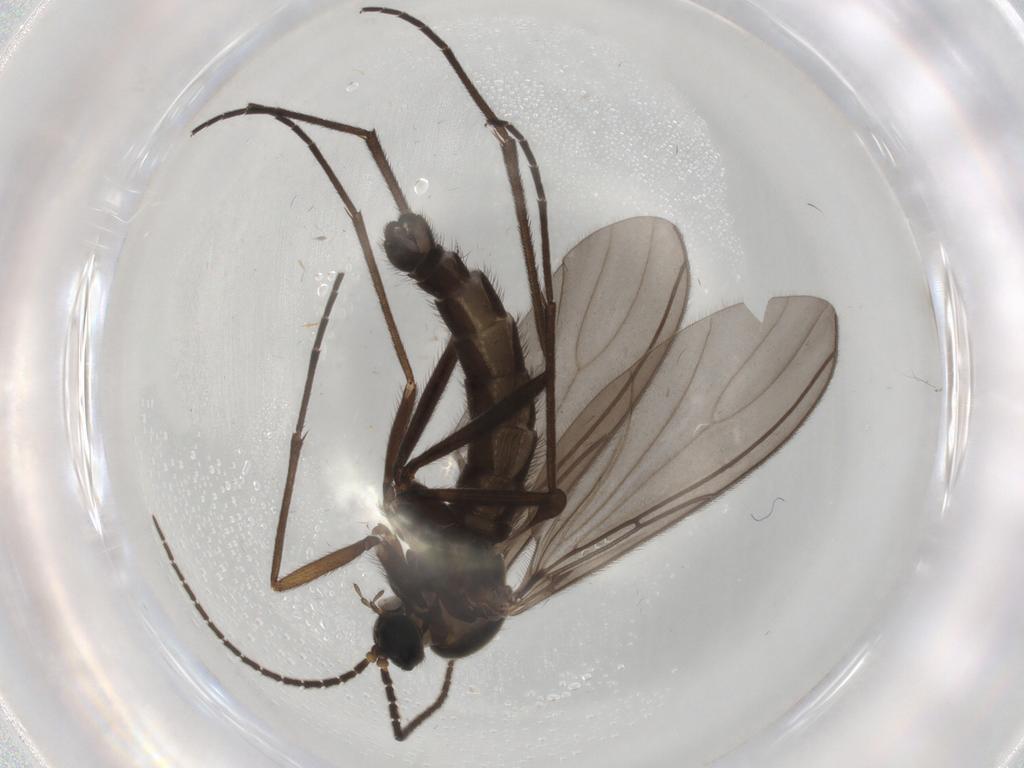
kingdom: Animalia
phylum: Arthropoda
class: Insecta
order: Diptera
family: Sciaridae
